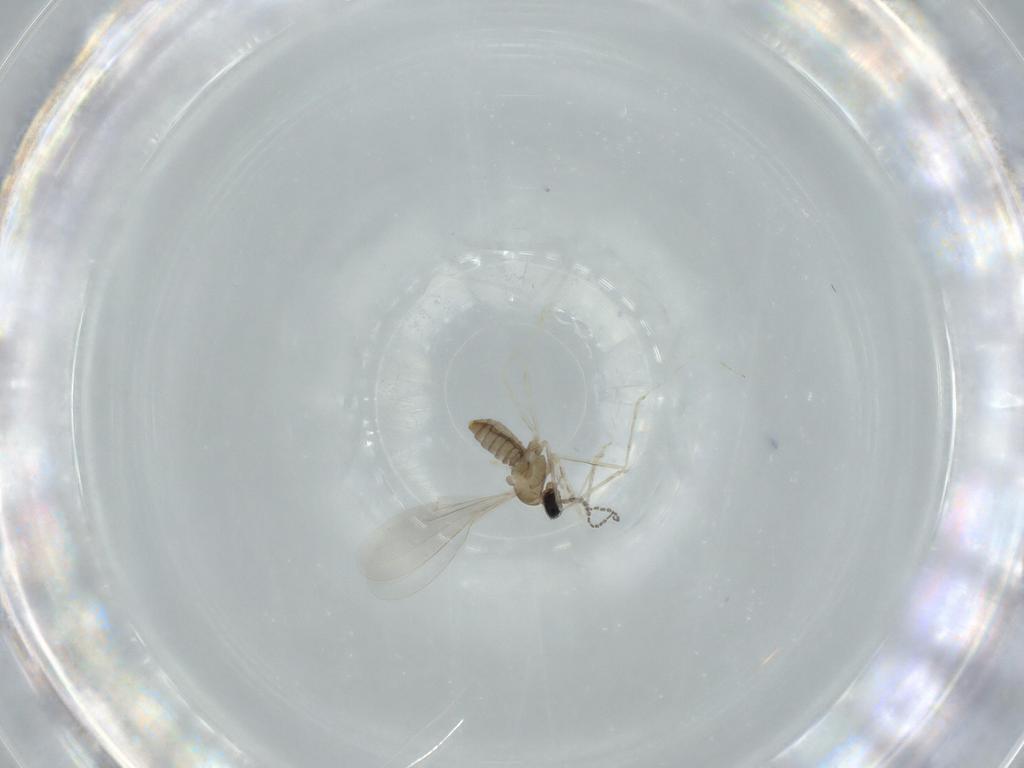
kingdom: Animalia
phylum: Arthropoda
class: Insecta
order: Diptera
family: Cecidomyiidae
